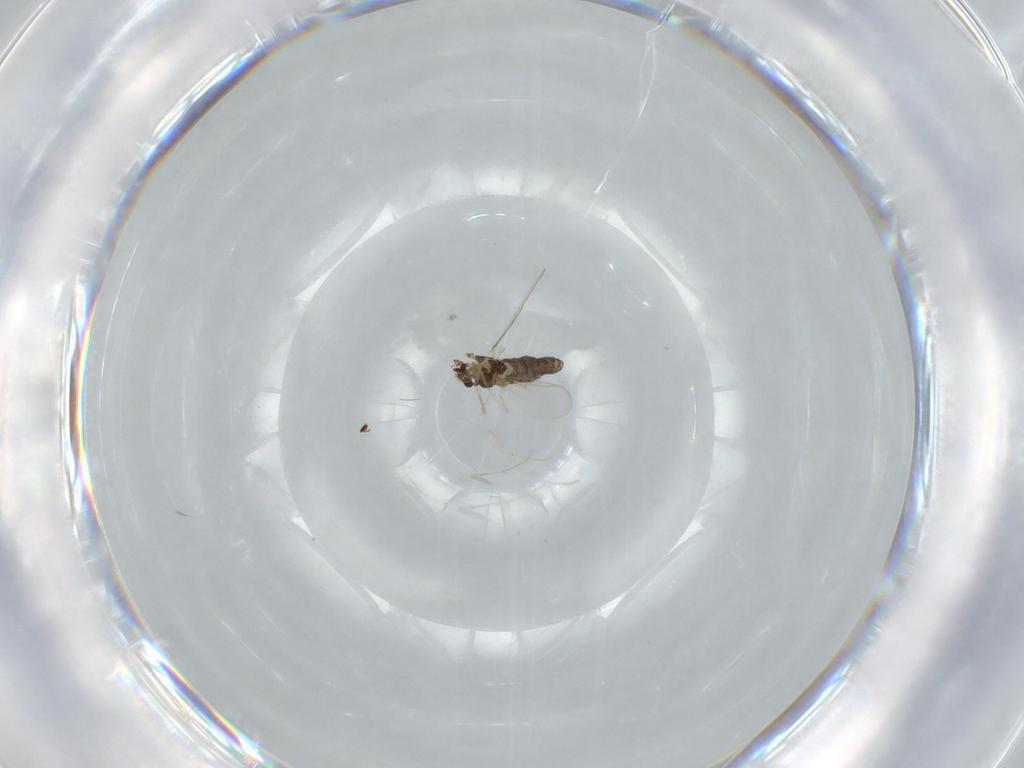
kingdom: Animalia
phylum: Arthropoda
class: Insecta
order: Diptera
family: Chironomidae
